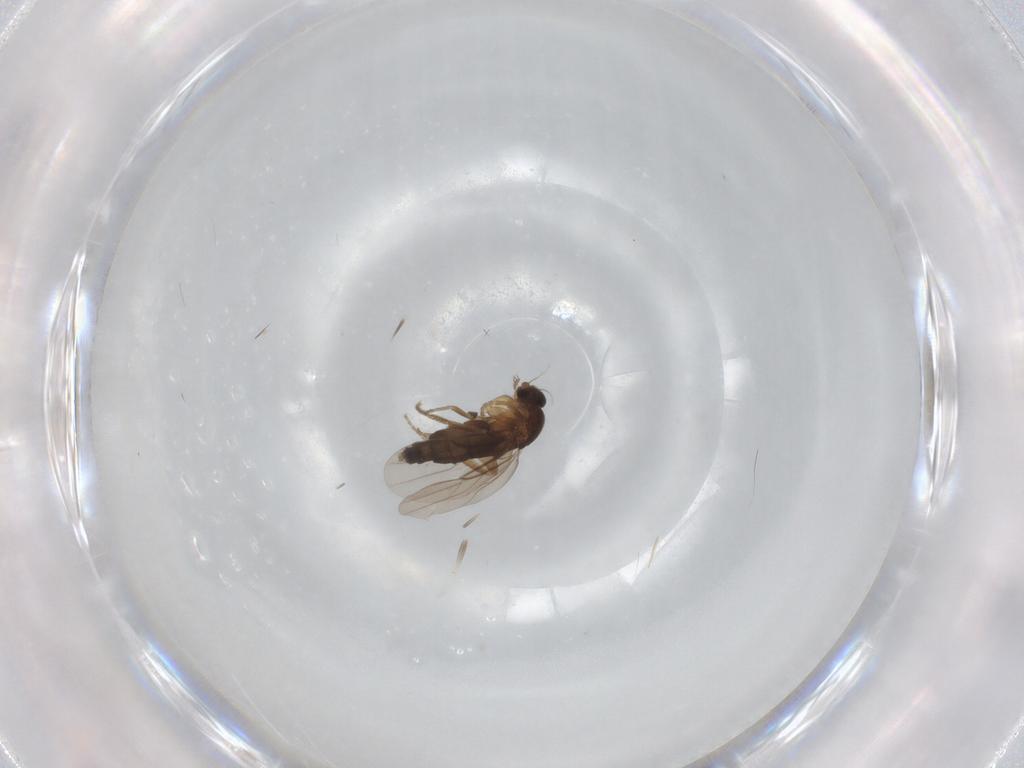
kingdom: Animalia
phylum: Arthropoda
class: Insecta
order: Diptera
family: Phoridae
